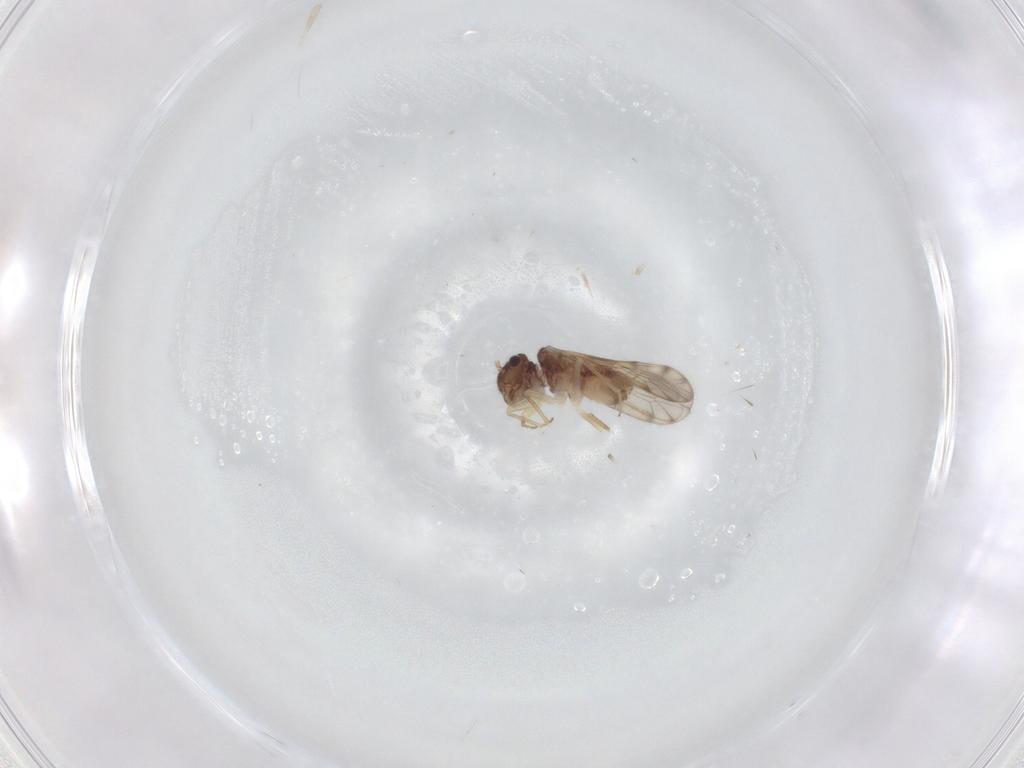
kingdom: Animalia
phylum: Arthropoda
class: Insecta
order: Psocodea
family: Peripsocidae
